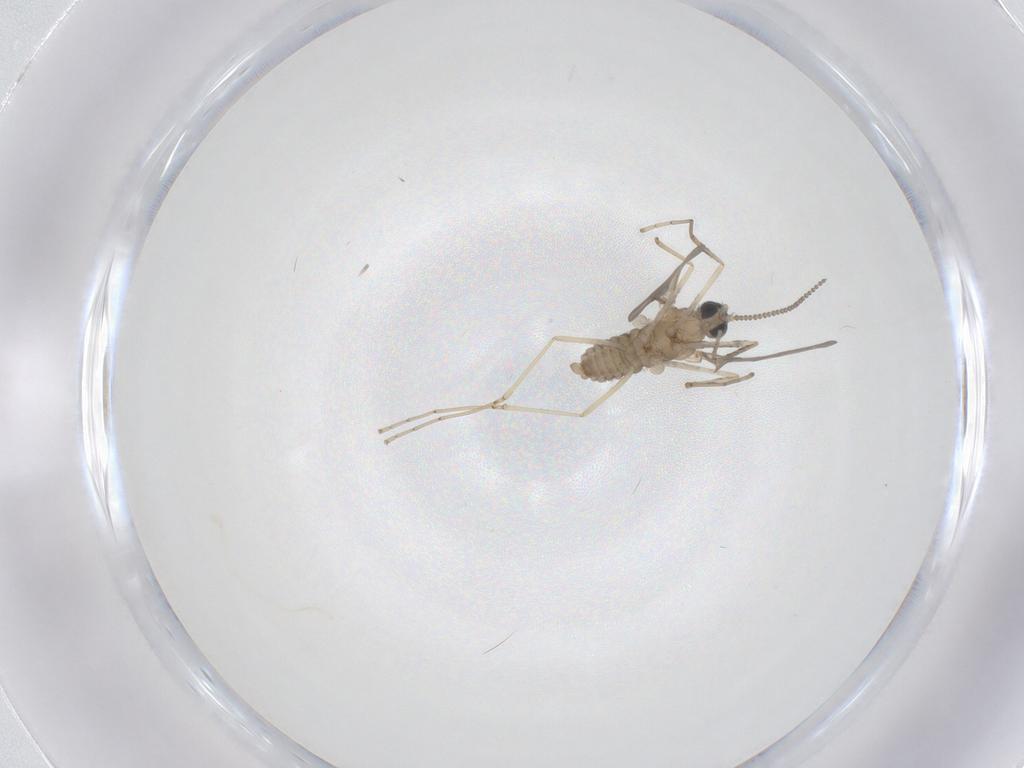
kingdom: Animalia
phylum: Arthropoda
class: Insecta
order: Diptera
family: Cecidomyiidae
